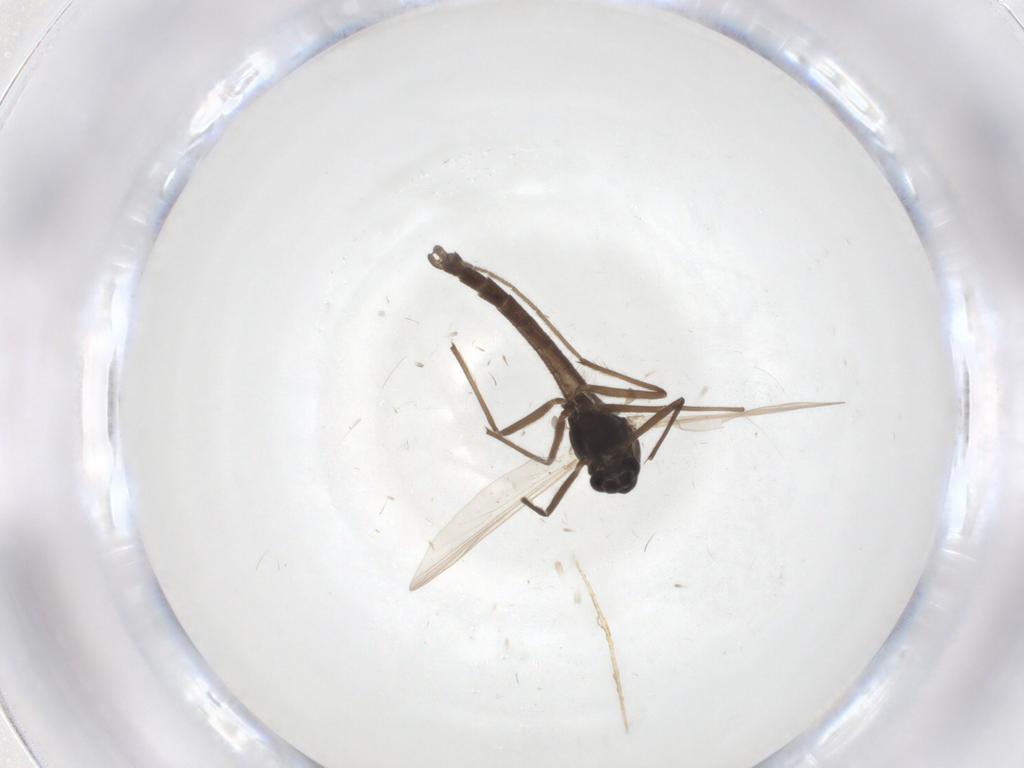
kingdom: Animalia
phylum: Arthropoda
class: Insecta
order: Diptera
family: Chironomidae
